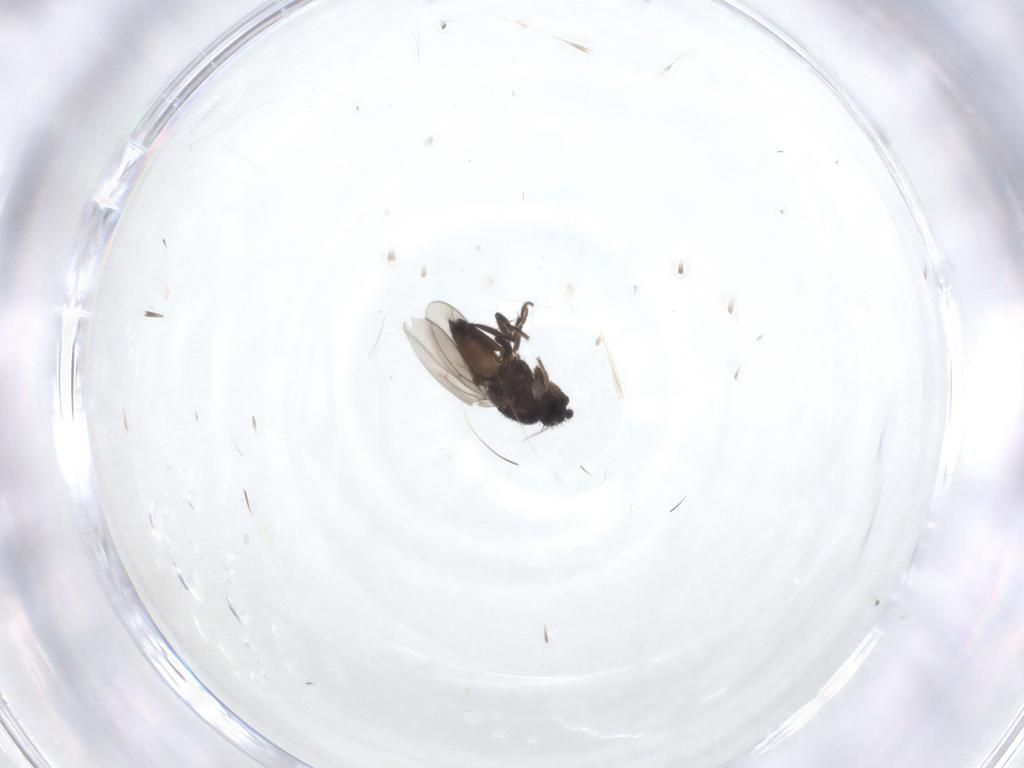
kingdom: Animalia
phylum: Arthropoda
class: Insecta
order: Diptera
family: Sphaeroceridae
